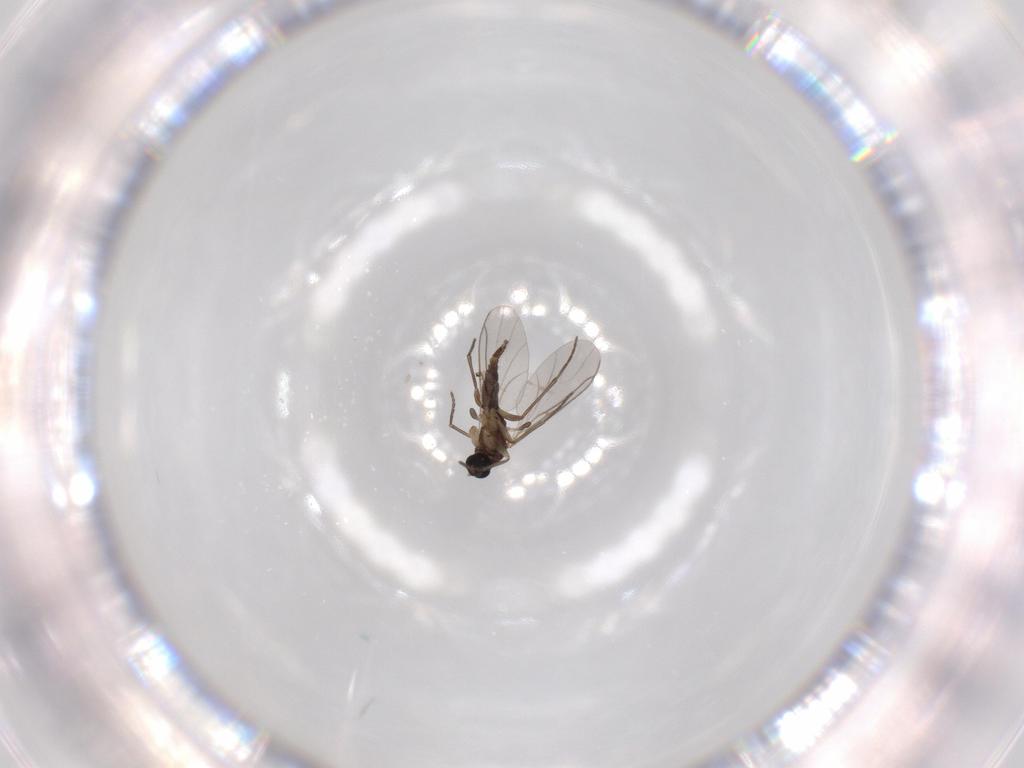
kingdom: Animalia
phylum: Arthropoda
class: Insecta
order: Diptera
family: Sciaridae
